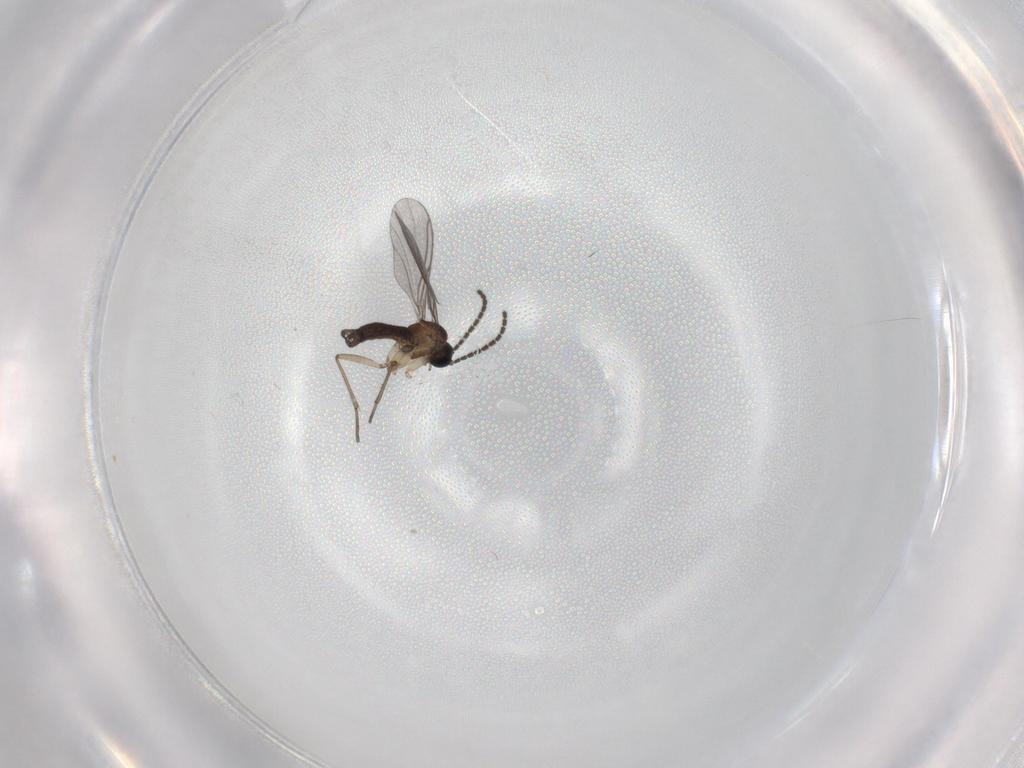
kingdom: Animalia
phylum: Arthropoda
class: Insecta
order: Diptera
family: Sciaridae
